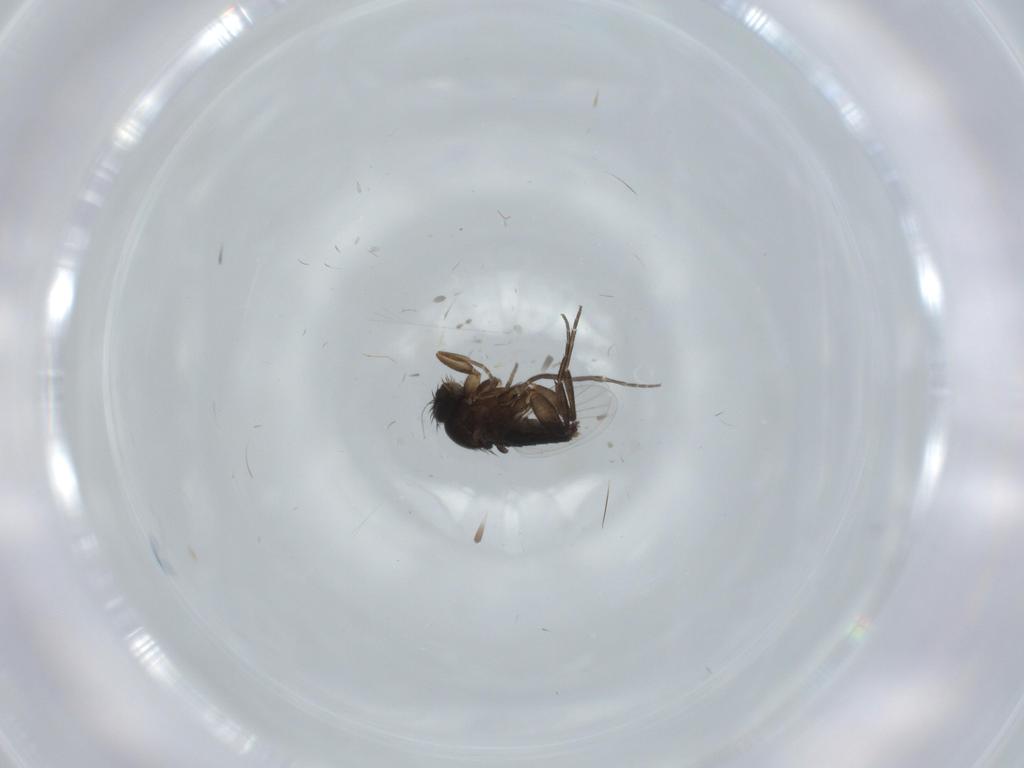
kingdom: Animalia
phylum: Arthropoda
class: Insecta
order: Diptera
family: Cecidomyiidae
